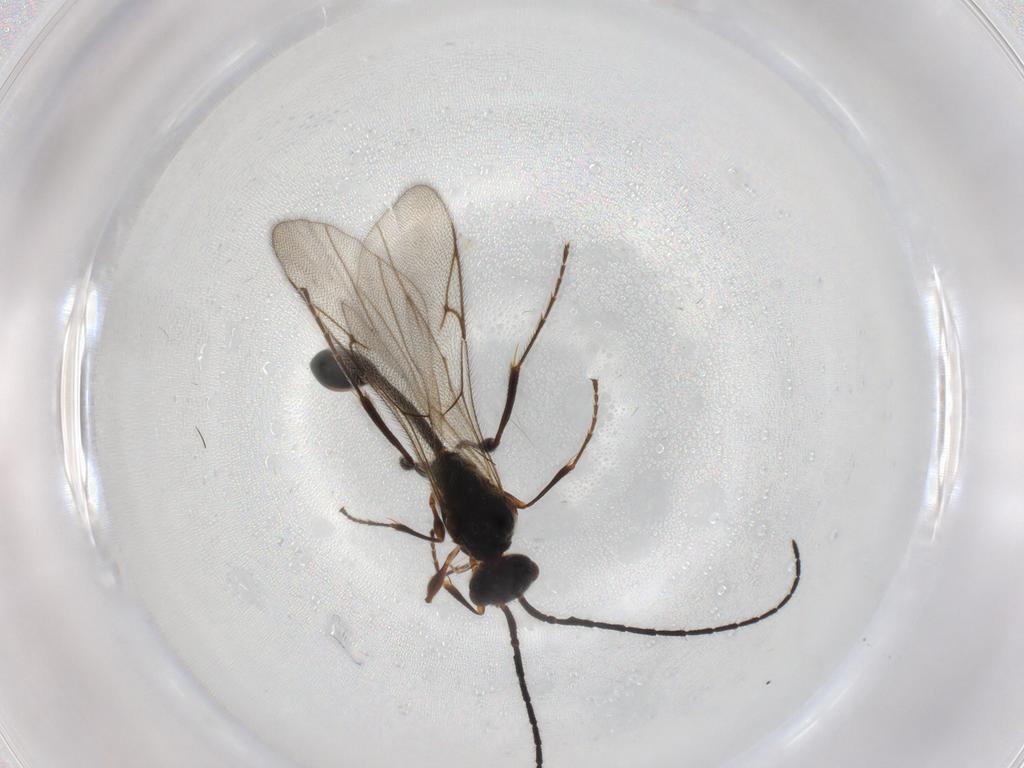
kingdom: Animalia
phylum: Arthropoda
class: Insecta
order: Hymenoptera
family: Diapriidae
